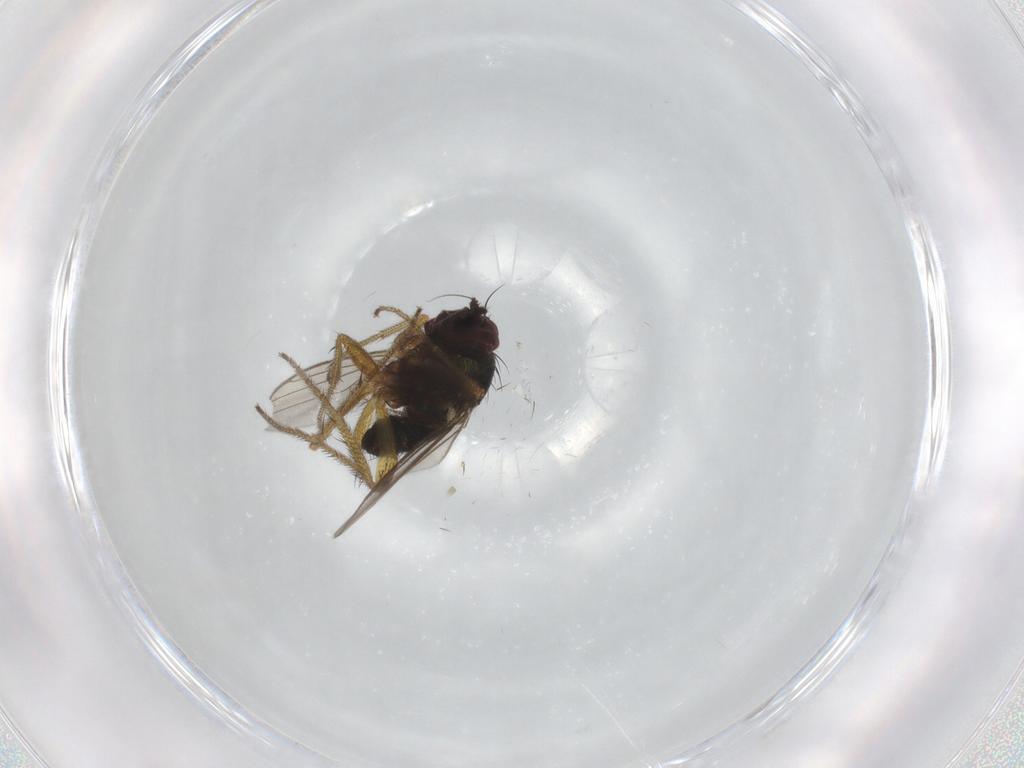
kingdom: Animalia
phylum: Arthropoda
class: Insecta
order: Diptera
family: Dolichopodidae
